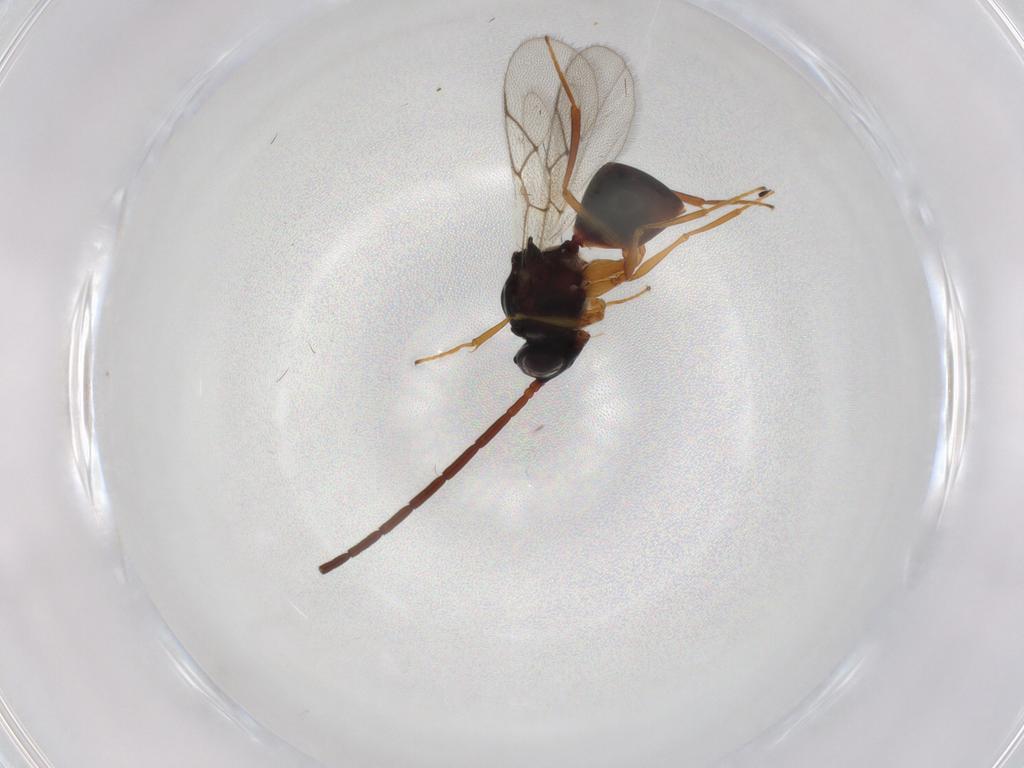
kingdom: Animalia
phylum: Arthropoda
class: Insecta
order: Hymenoptera
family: Figitidae
